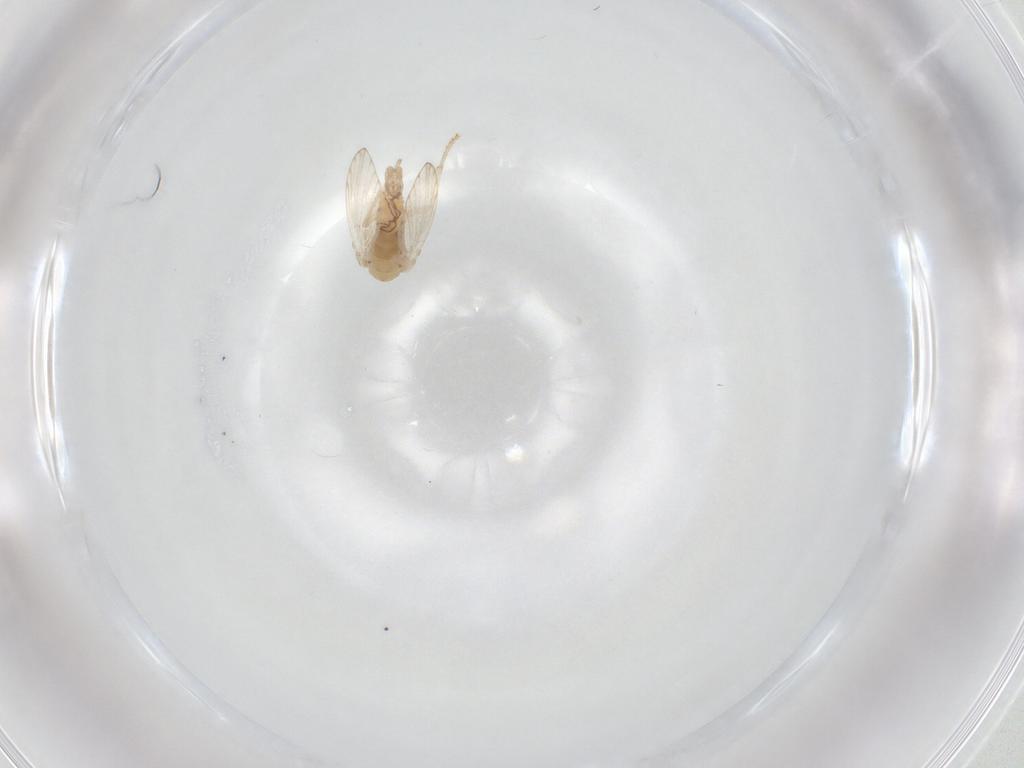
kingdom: Animalia
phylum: Arthropoda
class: Insecta
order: Diptera
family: Psychodidae
